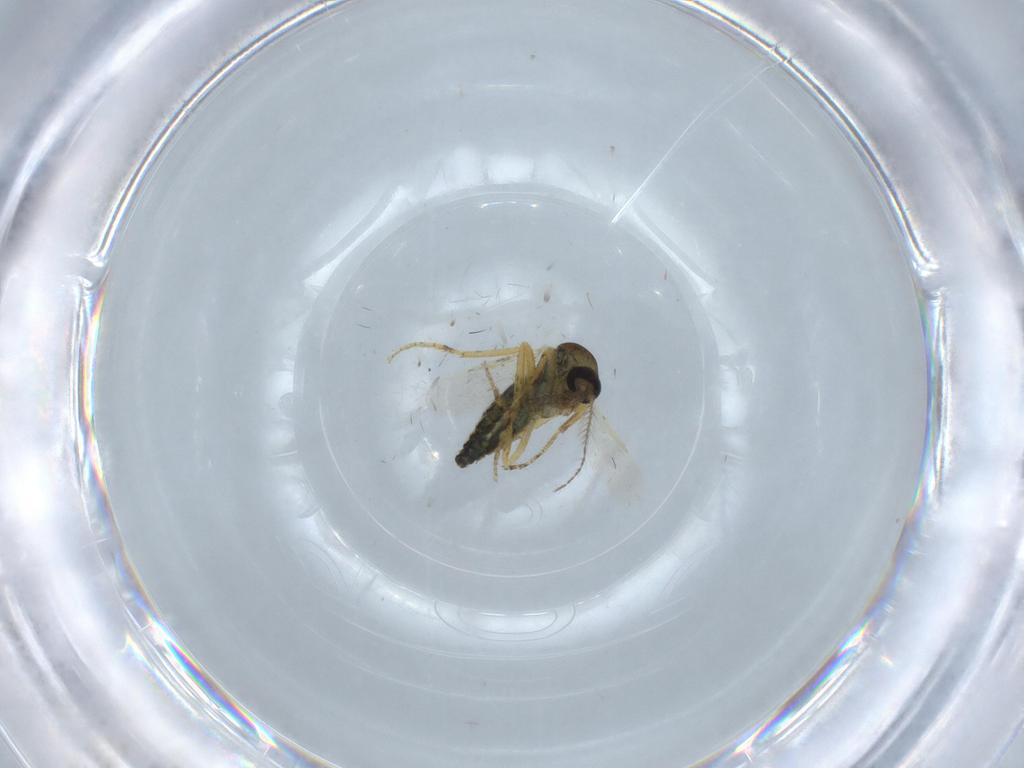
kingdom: Animalia
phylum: Arthropoda
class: Insecta
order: Diptera
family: Ceratopogonidae
